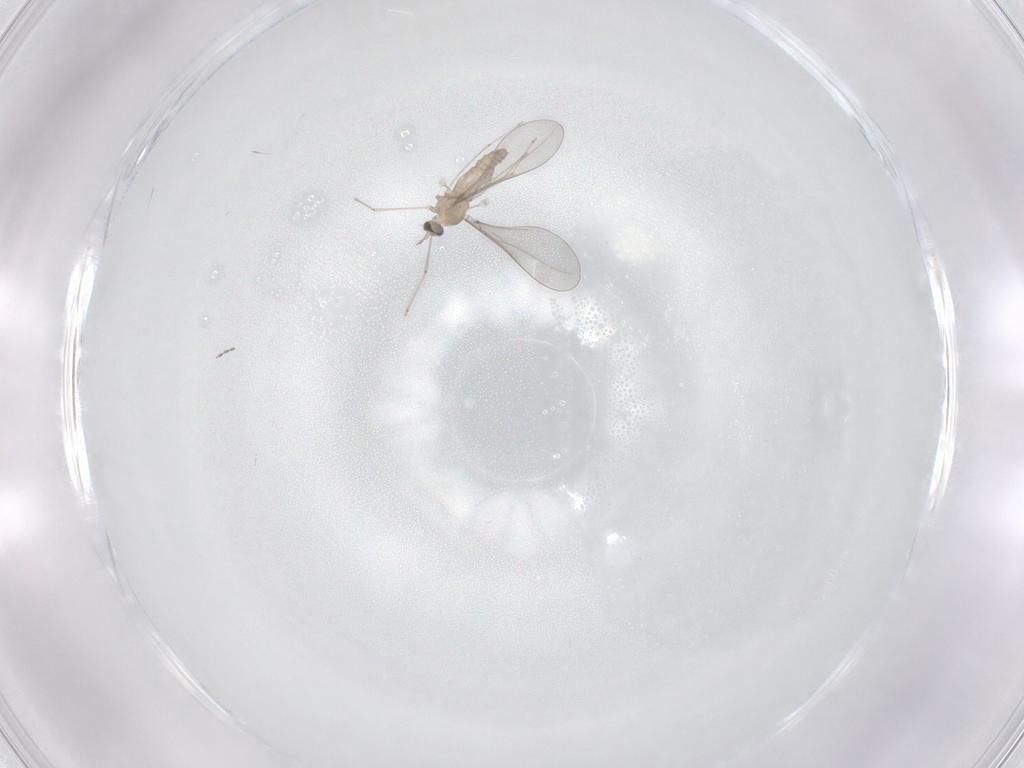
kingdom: Animalia
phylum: Arthropoda
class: Insecta
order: Diptera
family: Cecidomyiidae
